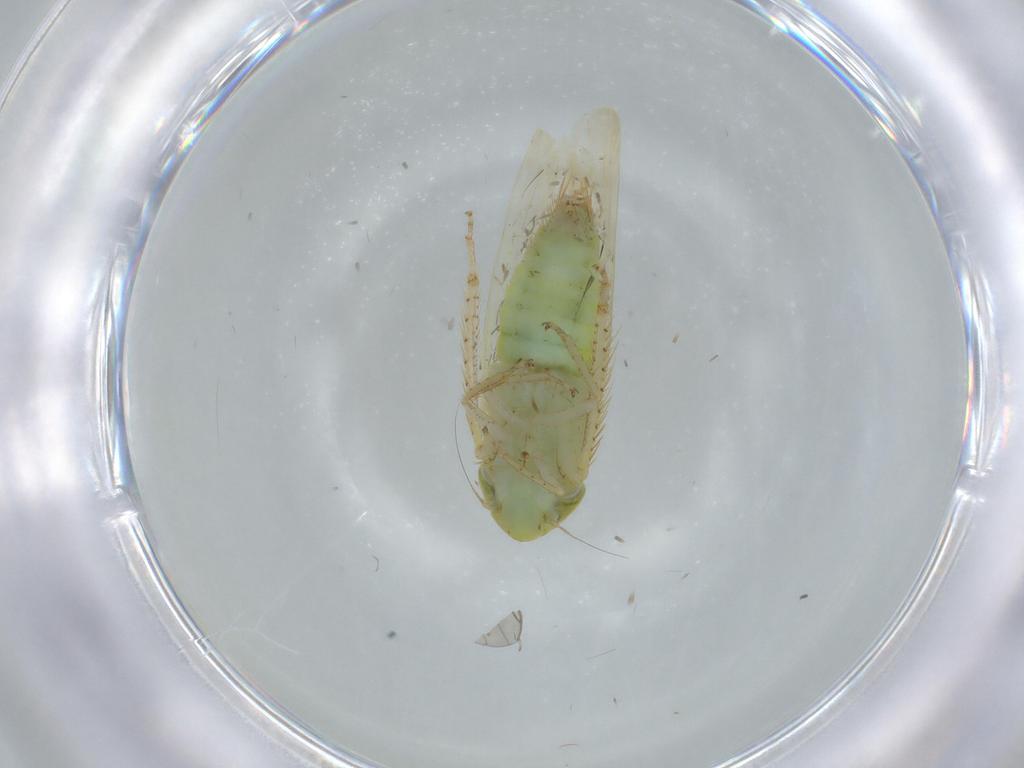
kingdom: Animalia
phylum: Arthropoda
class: Insecta
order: Hemiptera
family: Cicadellidae
